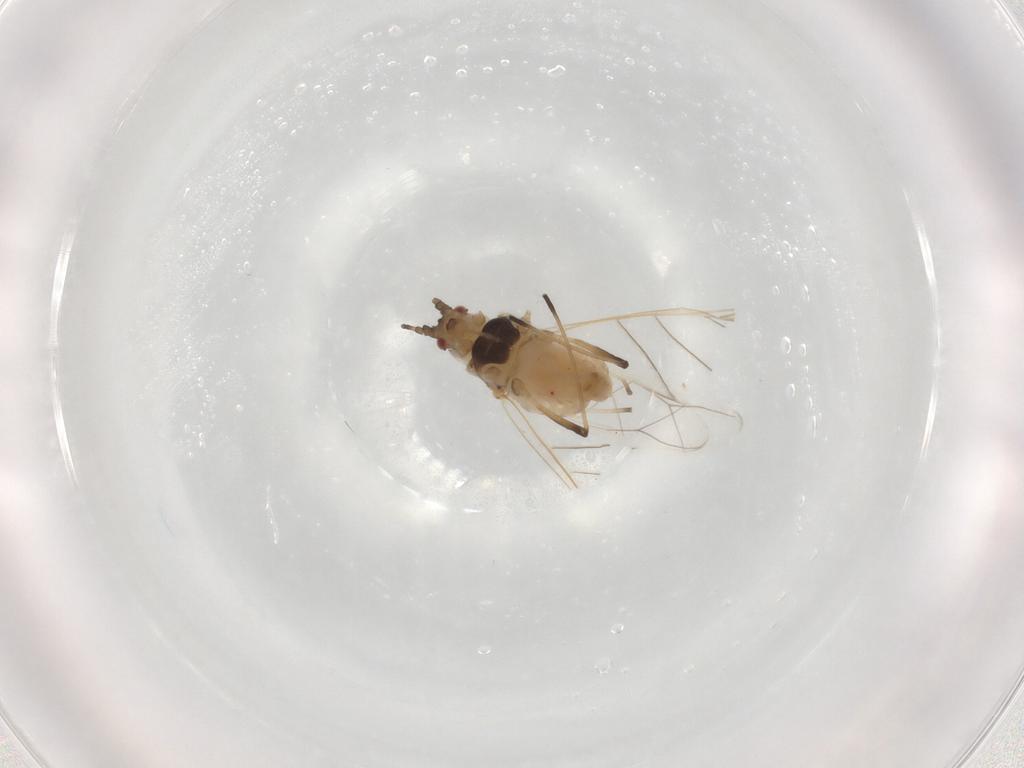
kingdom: Animalia
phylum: Arthropoda
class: Insecta
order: Hemiptera
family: Aphididae
